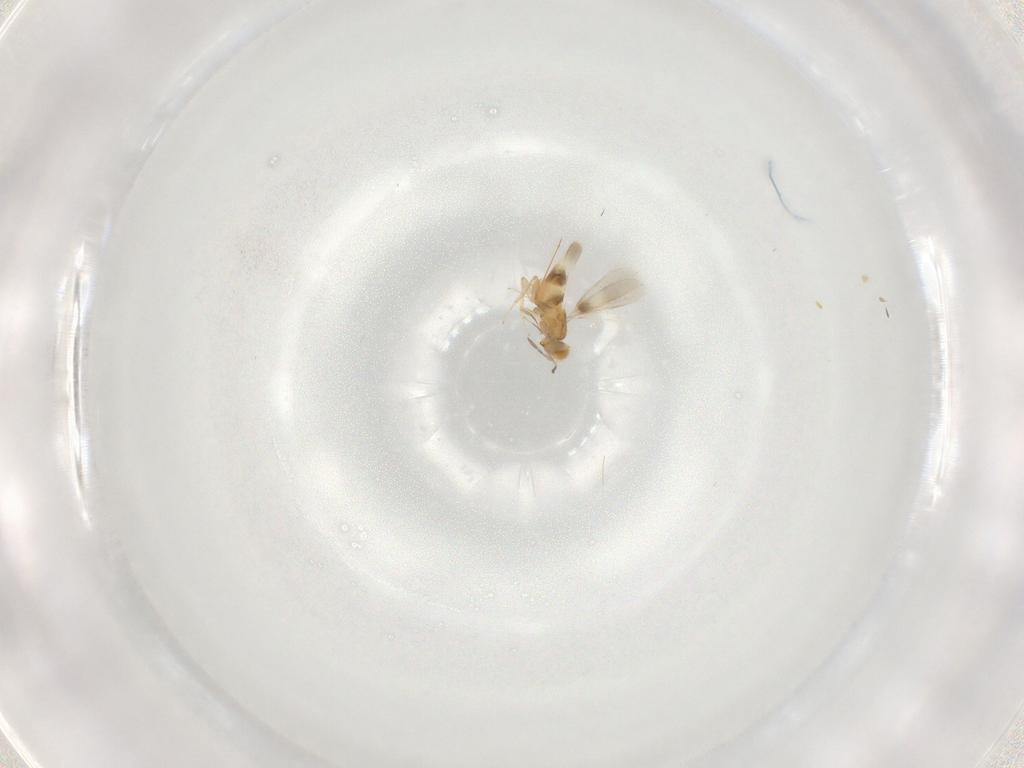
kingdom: Animalia
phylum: Arthropoda
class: Insecta
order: Hymenoptera
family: Aphelinidae
